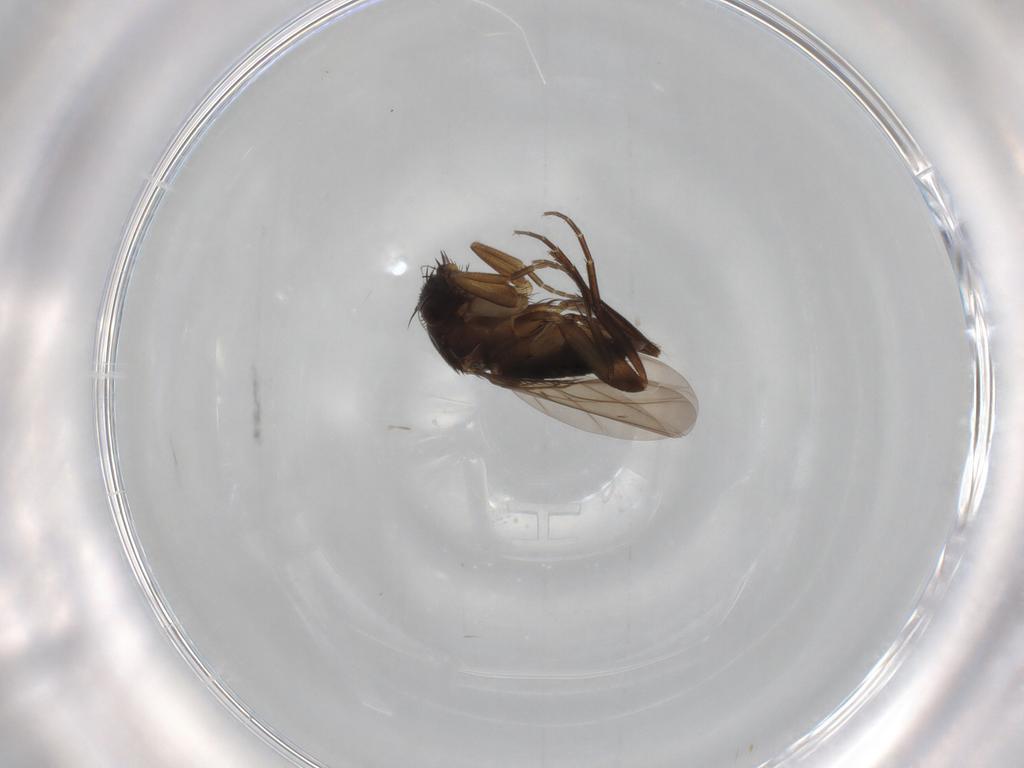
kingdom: Animalia
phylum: Arthropoda
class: Insecta
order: Diptera
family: Phoridae
